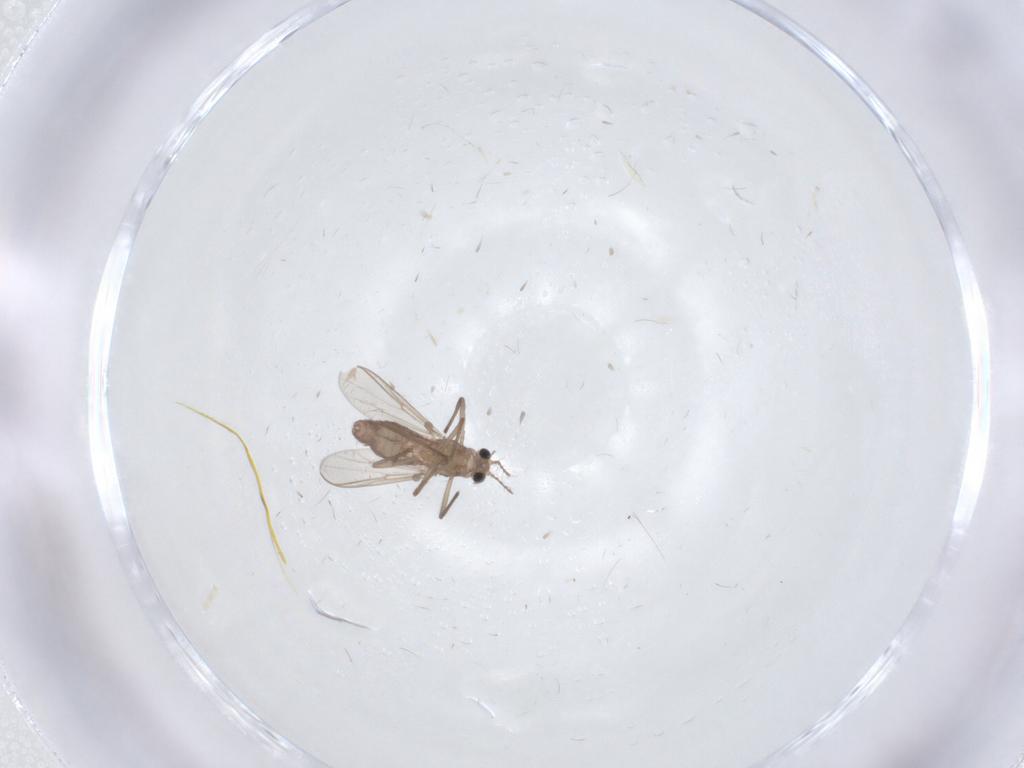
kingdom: Animalia
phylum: Arthropoda
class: Insecta
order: Diptera
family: Chironomidae
